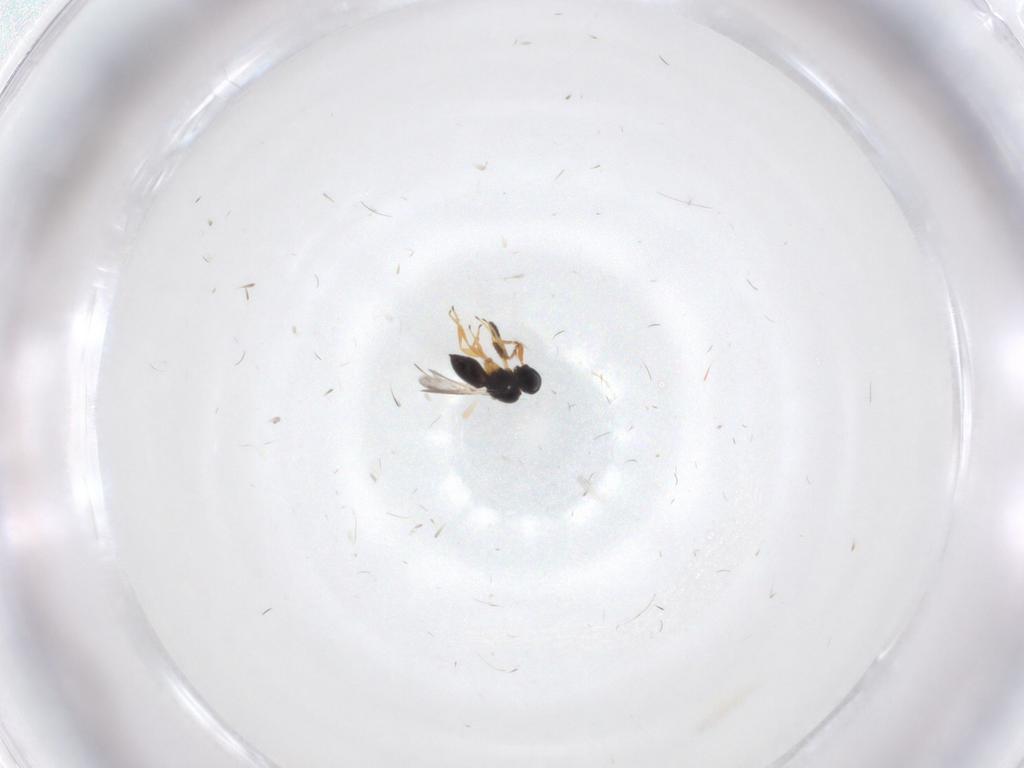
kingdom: Animalia
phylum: Arthropoda
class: Insecta
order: Hymenoptera
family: Scelionidae
